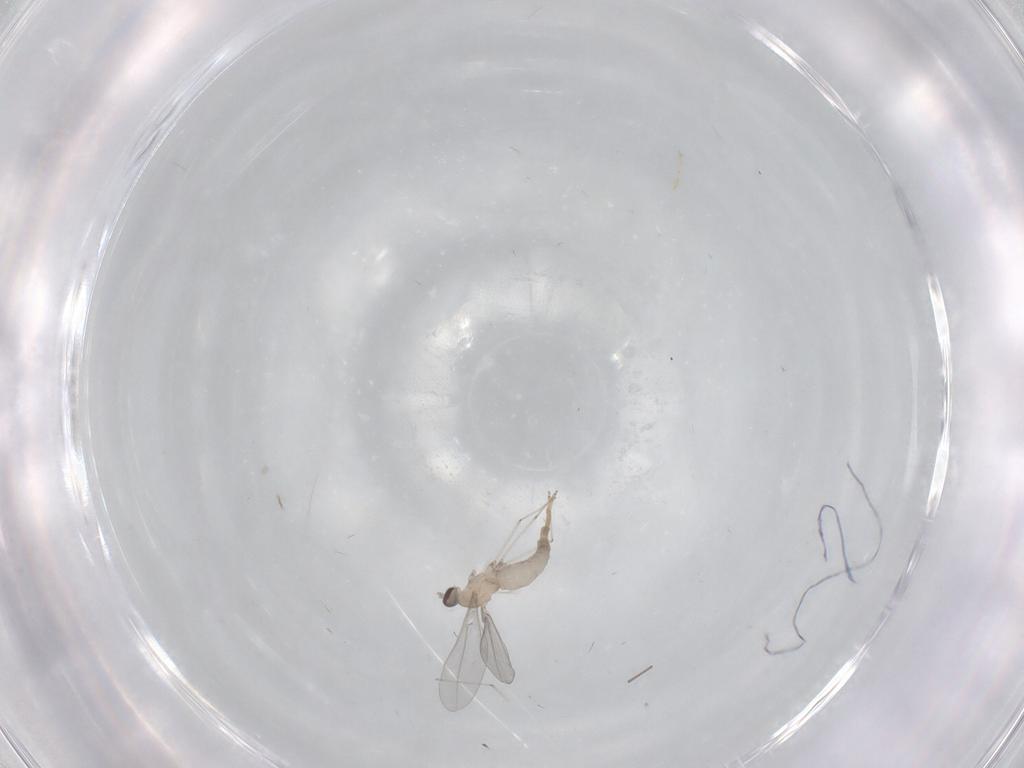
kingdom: Animalia
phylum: Arthropoda
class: Insecta
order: Diptera
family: Cecidomyiidae
